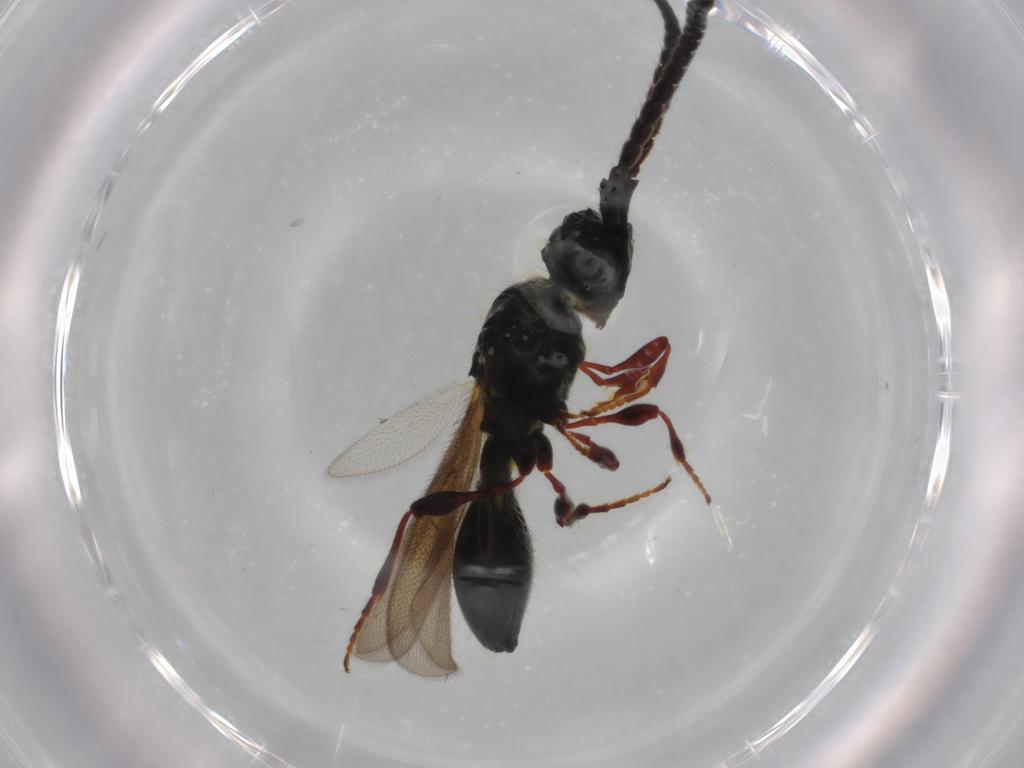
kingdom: Animalia
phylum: Arthropoda
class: Insecta
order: Hymenoptera
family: Diapriidae
